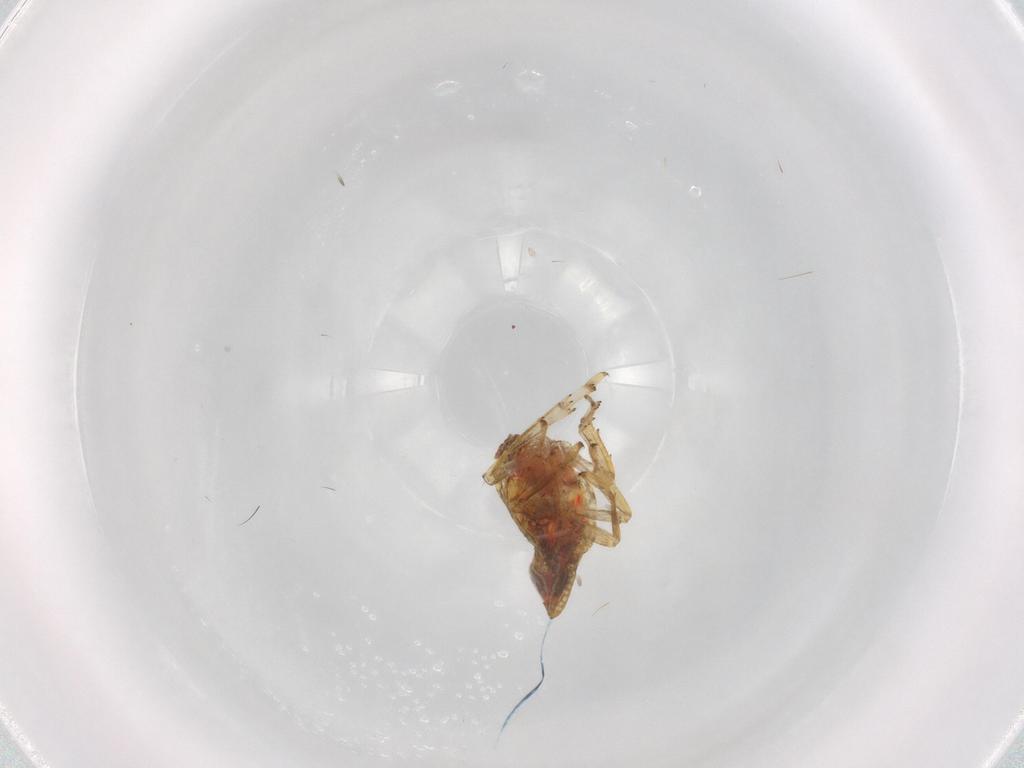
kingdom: Animalia
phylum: Arthropoda
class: Insecta
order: Hemiptera
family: Issidae
